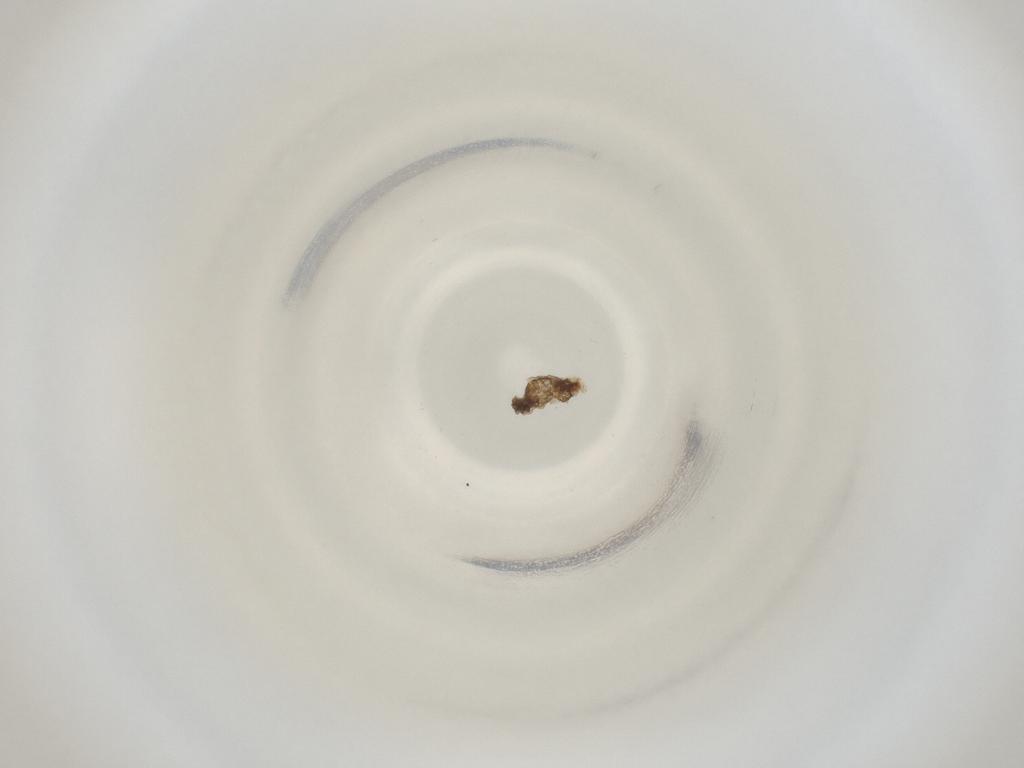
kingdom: Animalia
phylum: Arthropoda
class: Insecta
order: Diptera
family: Cecidomyiidae
